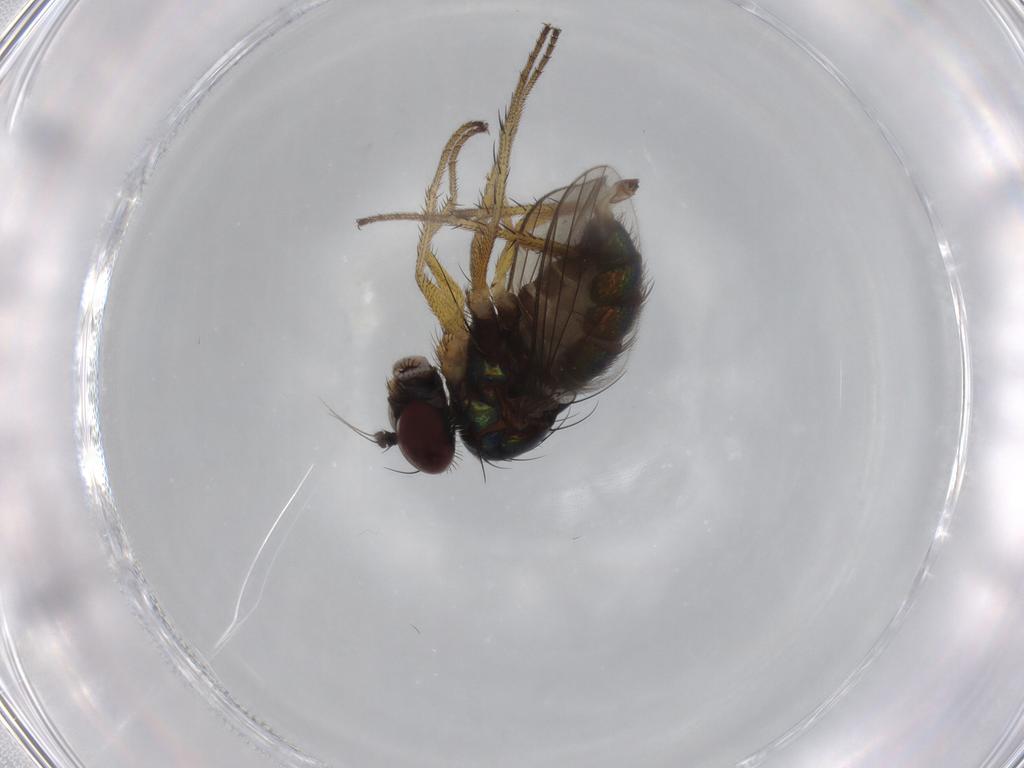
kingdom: Animalia
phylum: Arthropoda
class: Insecta
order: Diptera
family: Dolichopodidae
